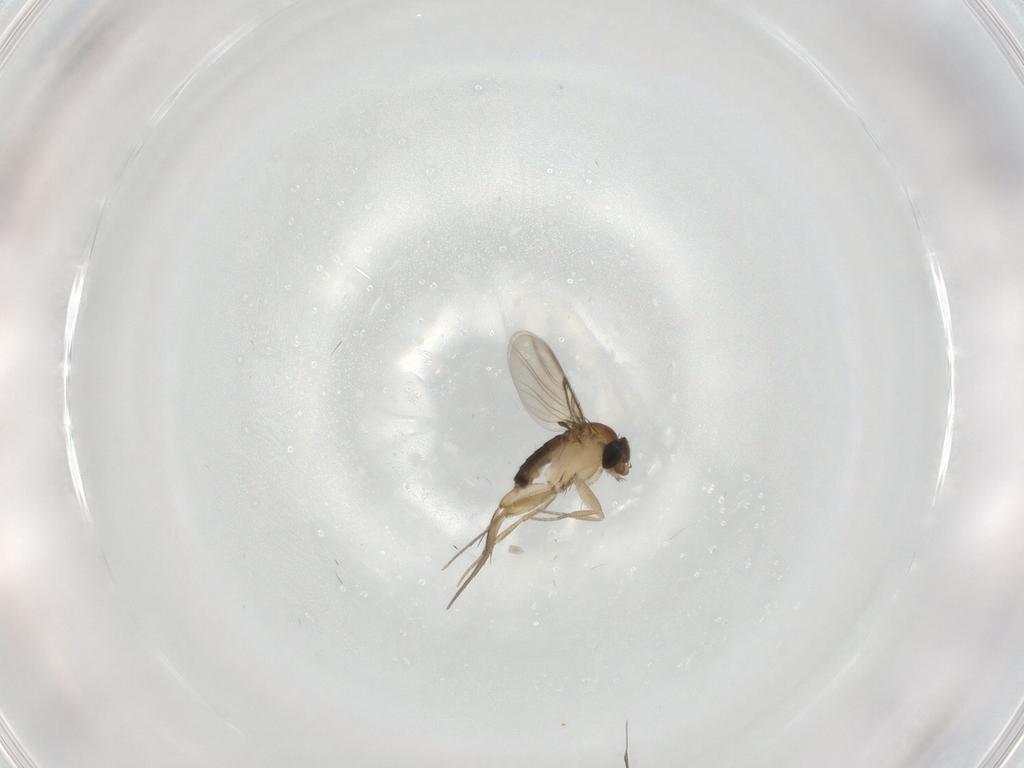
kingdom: Animalia
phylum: Arthropoda
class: Insecta
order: Diptera
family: Phoridae
